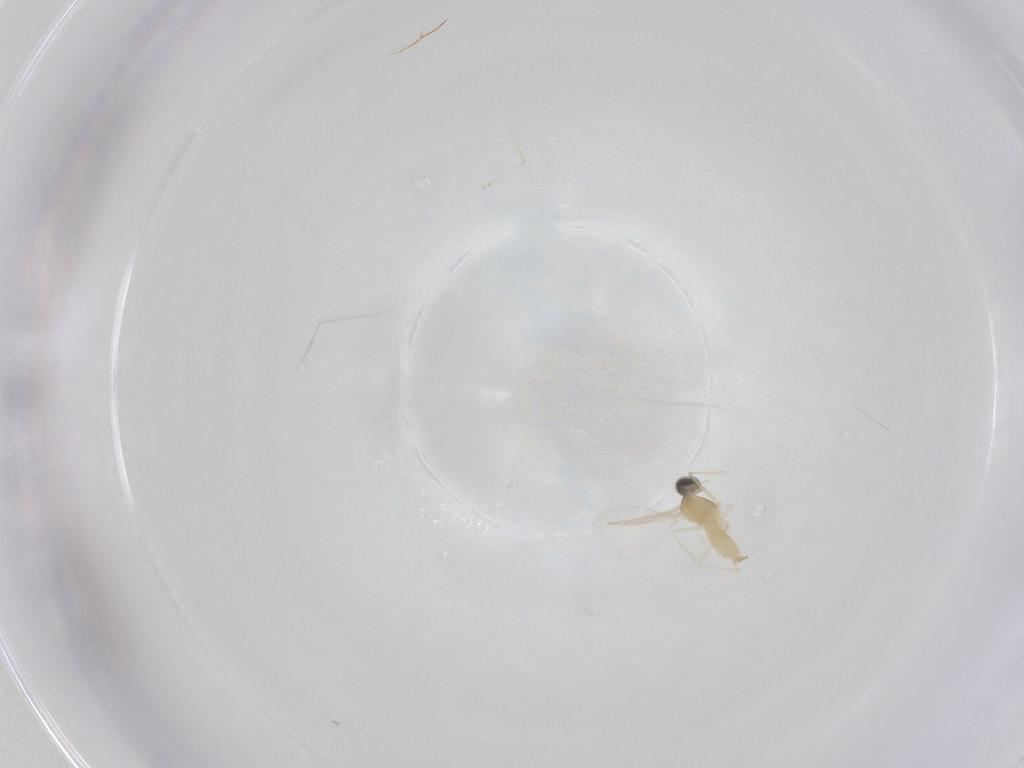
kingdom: Animalia
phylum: Arthropoda
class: Insecta
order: Diptera
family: Cecidomyiidae
